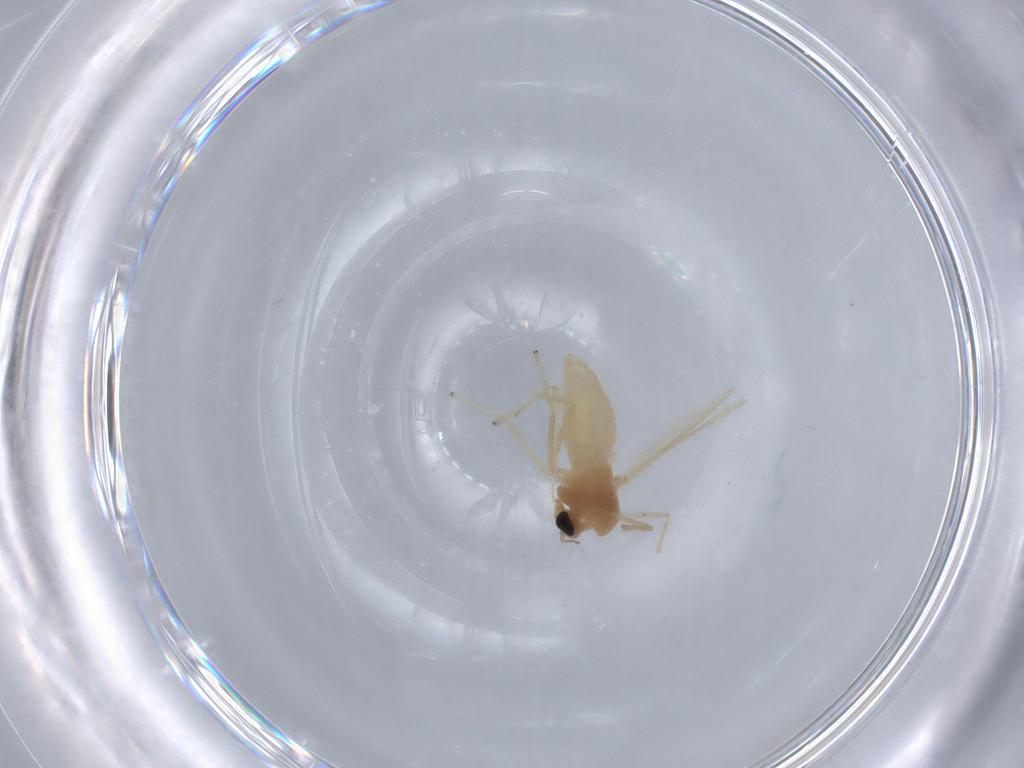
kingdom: Animalia
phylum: Arthropoda
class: Insecta
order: Diptera
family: Chironomidae
